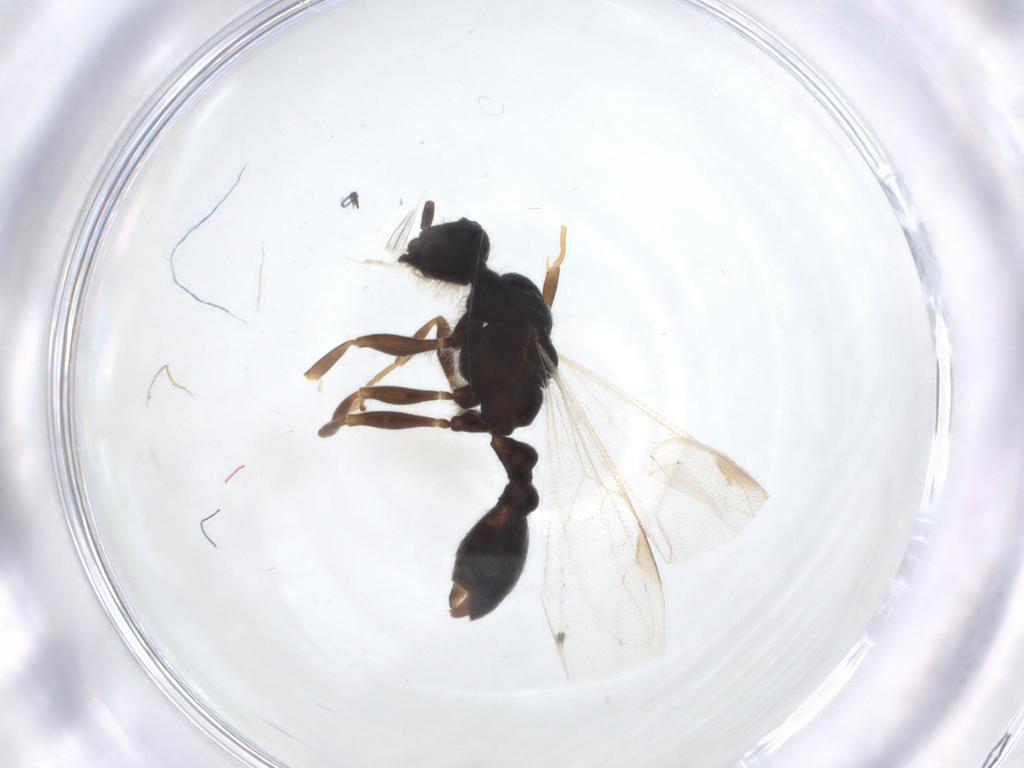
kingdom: Animalia
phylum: Arthropoda
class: Insecta
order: Hymenoptera
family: Formicidae
